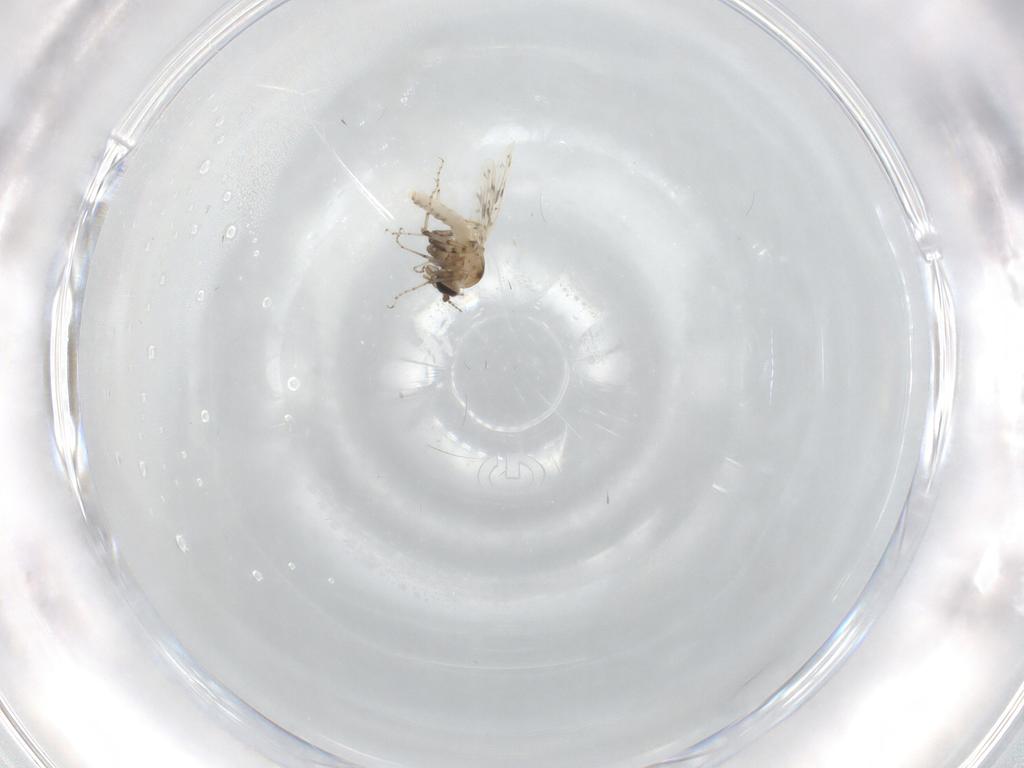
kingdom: Animalia
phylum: Arthropoda
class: Insecta
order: Diptera
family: Ceratopogonidae
